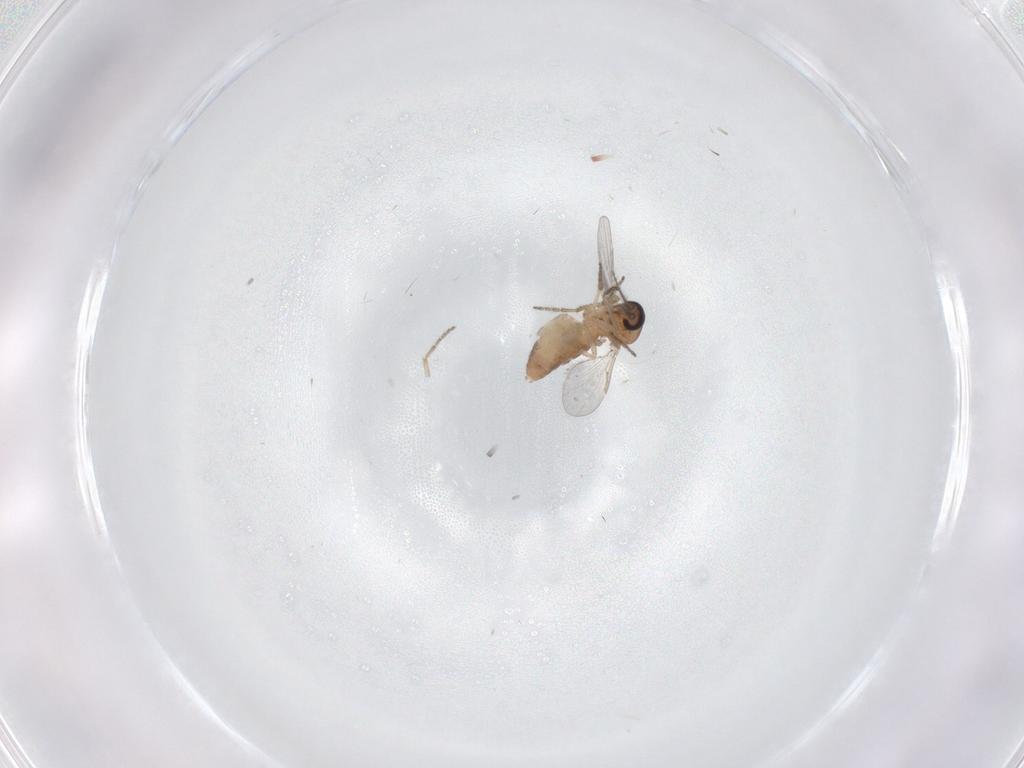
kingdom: Animalia
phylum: Arthropoda
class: Insecta
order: Diptera
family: Ceratopogonidae
